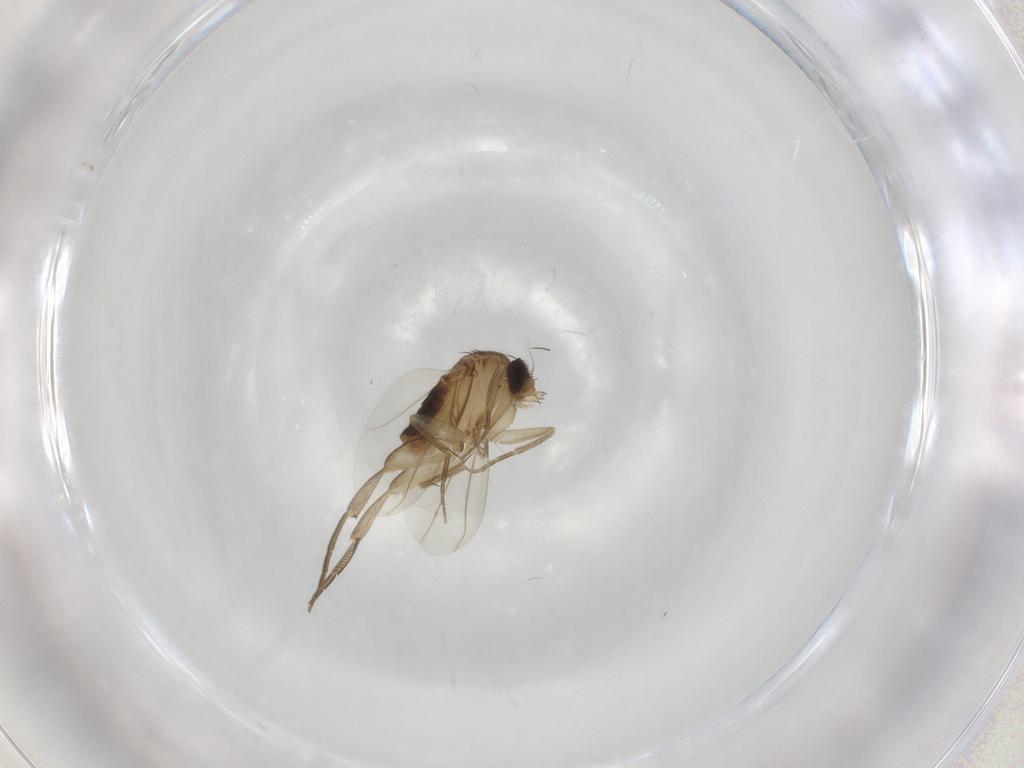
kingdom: Animalia
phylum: Arthropoda
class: Insecta
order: Diptera
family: Phoridae
